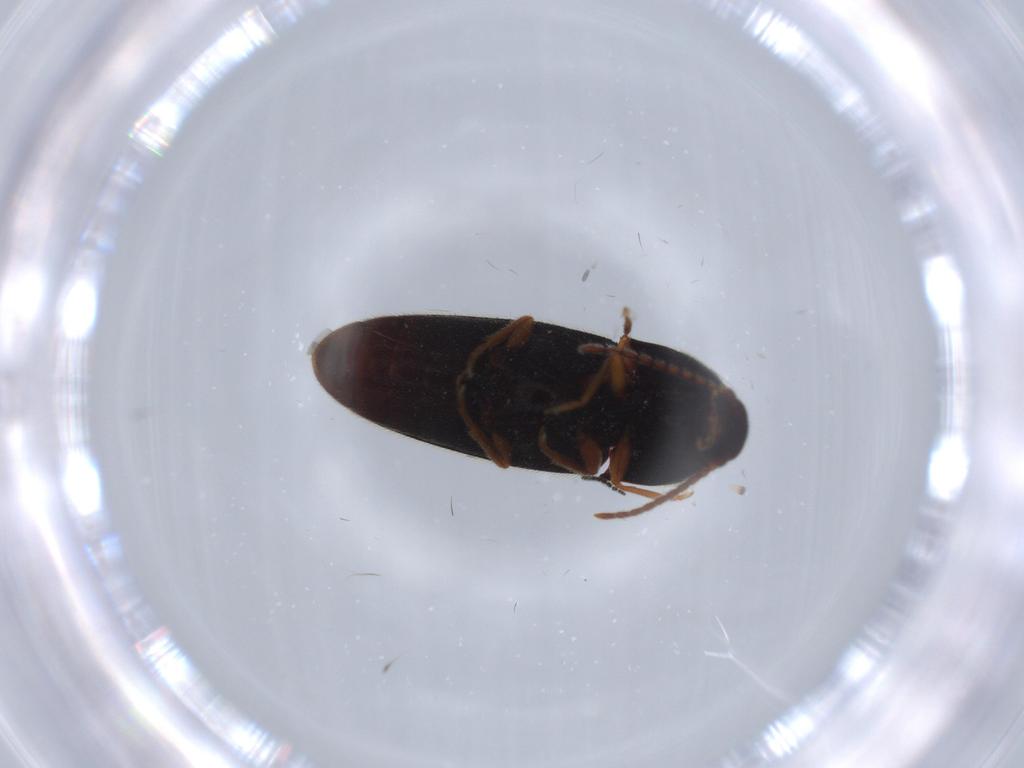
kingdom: Animalia
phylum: Arthropoda
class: Insecta
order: Coleoptera
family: Elateridae
